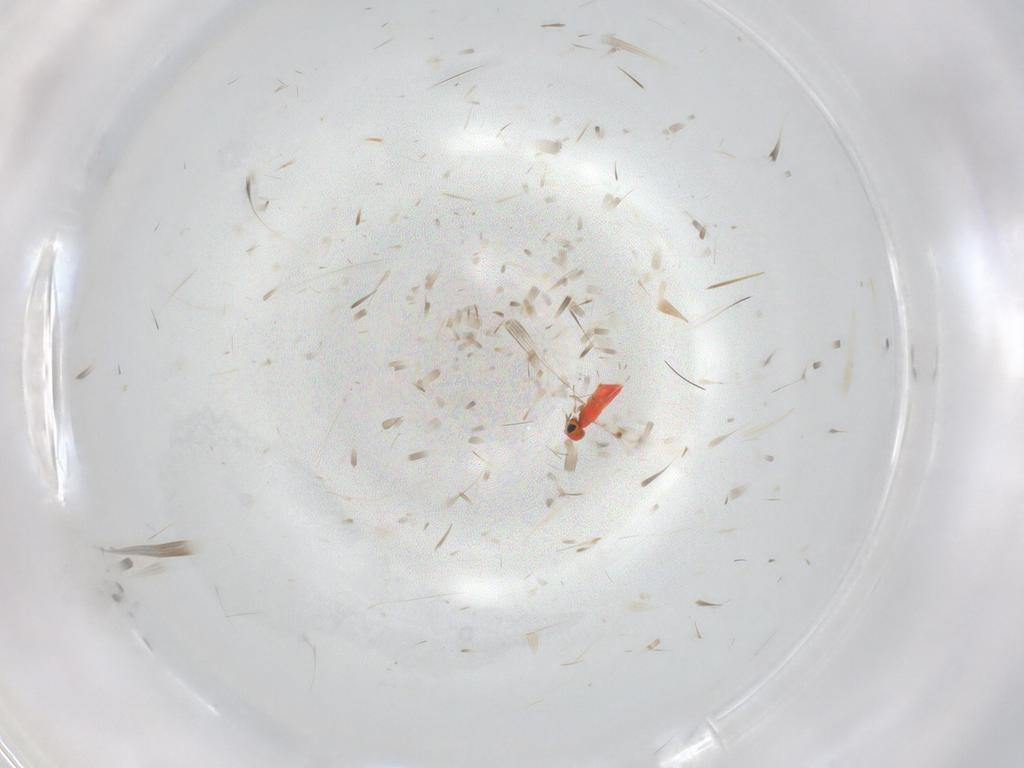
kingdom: Animalia
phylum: Arthropoda
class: Insecta
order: Hymenoptera
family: Trichogrammatidae
